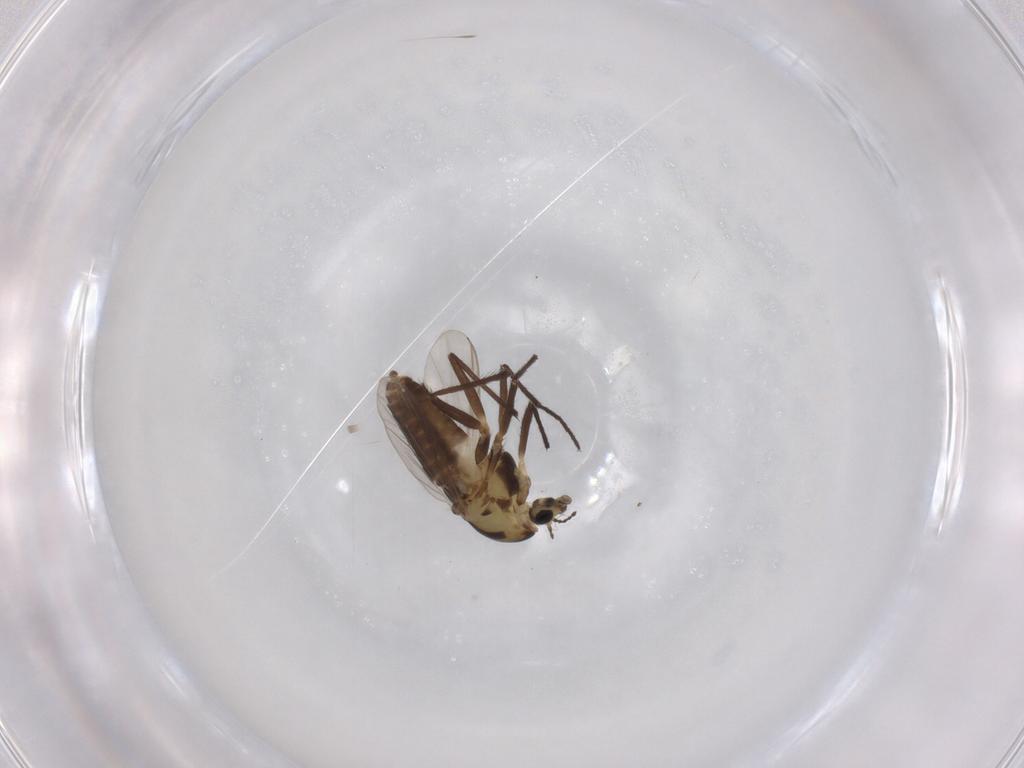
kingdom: Animalia
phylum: Arthropoda
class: Insecta
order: Diptera
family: Chironomidae
